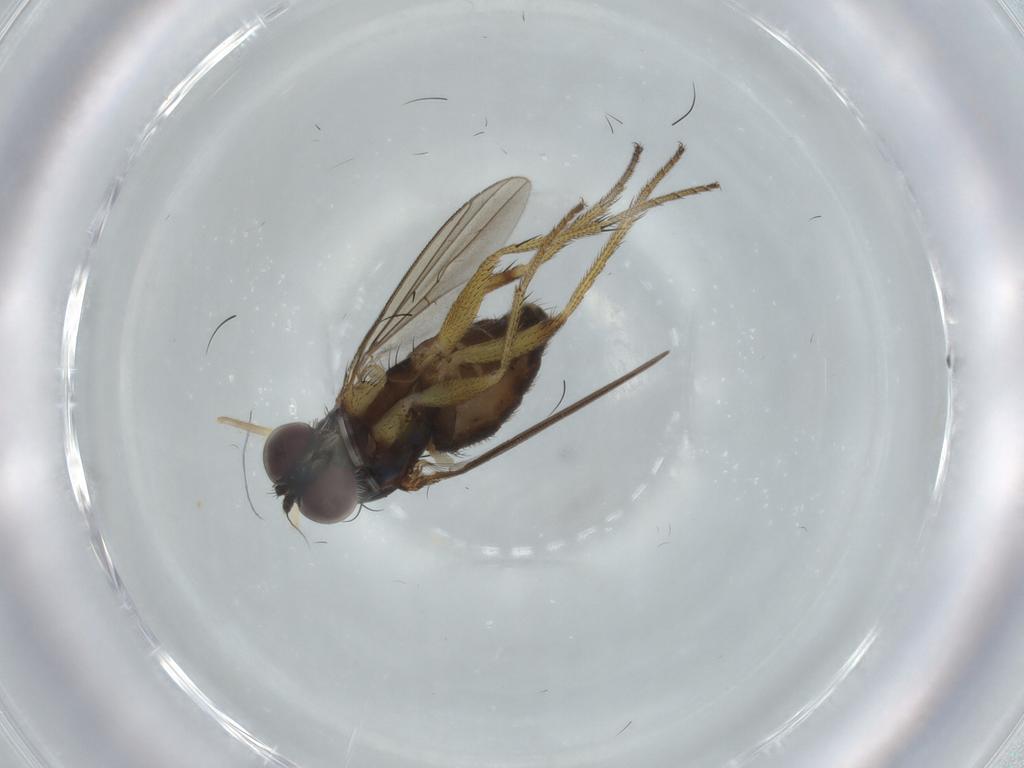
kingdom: Animalia
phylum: Arthropoda
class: Insecta
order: Diptera
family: Dolichopodidae
